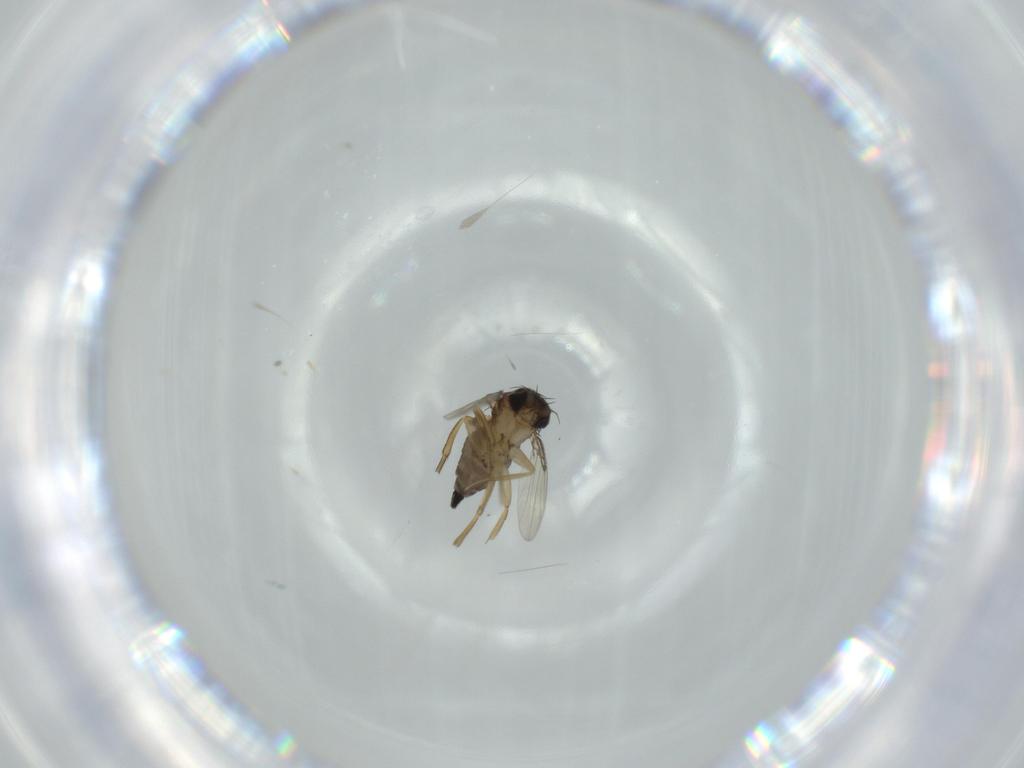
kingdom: Animalia
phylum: Arthropoda
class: Insecta
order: Diptera
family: Phoridae
